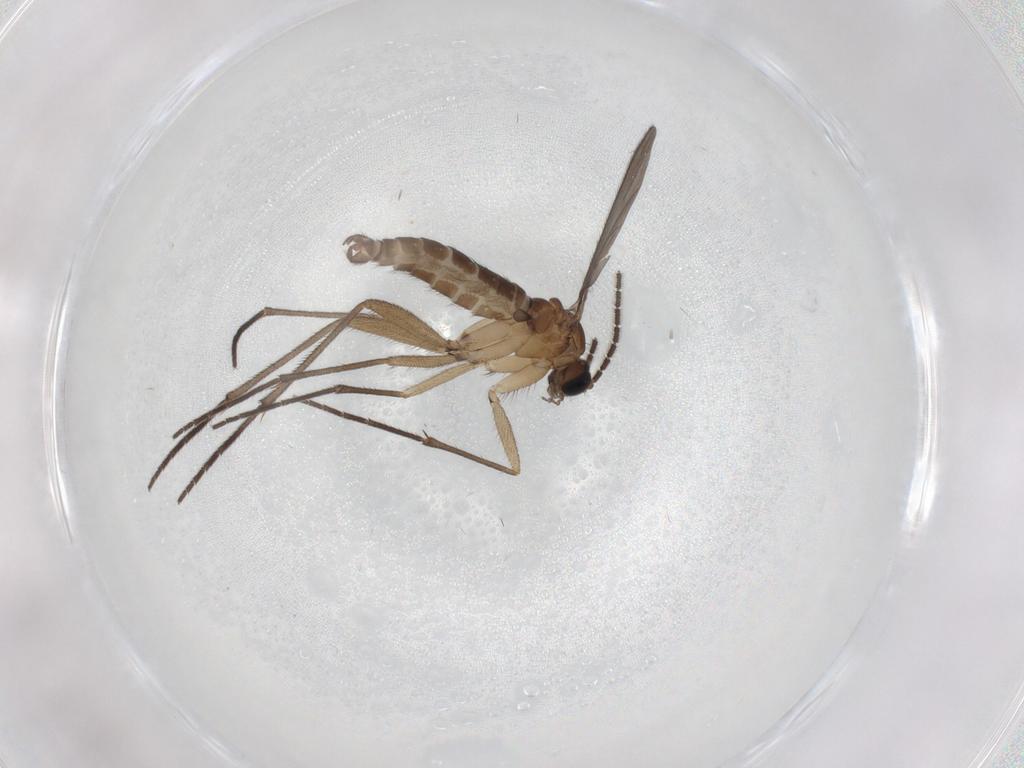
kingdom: Animalia
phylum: Arthropoda
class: Insecta
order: Diptera
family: Limoniidae
